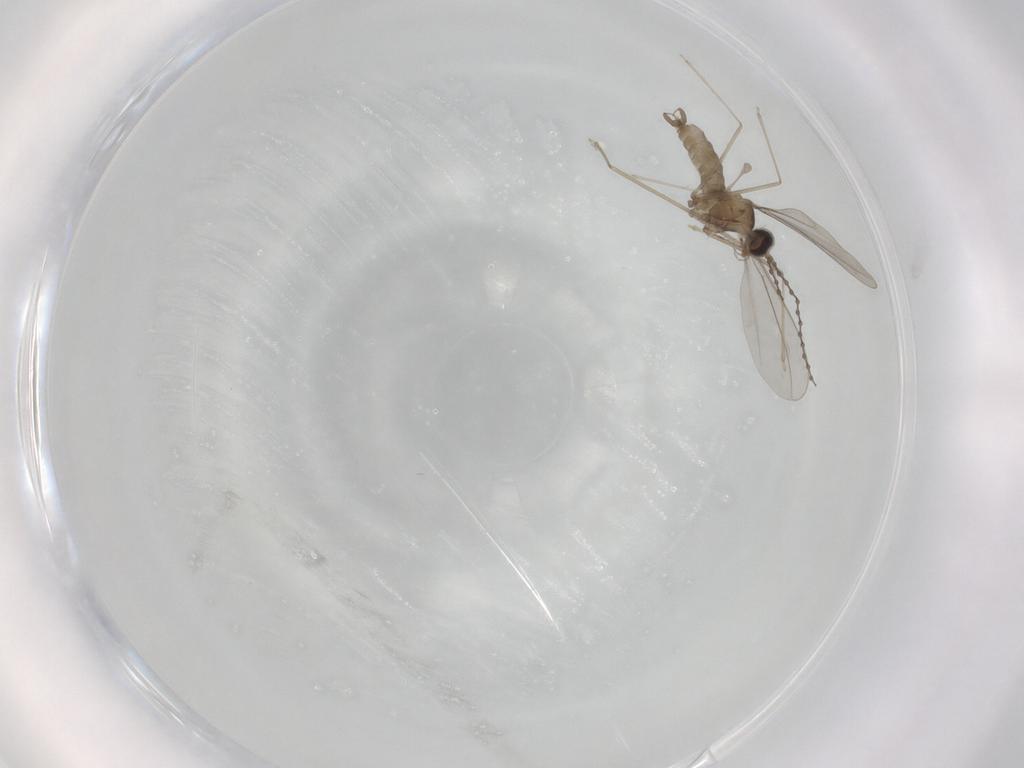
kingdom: Animalia
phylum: Arthropoda
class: Insecta
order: Diptera
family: Cecidomyiidae
